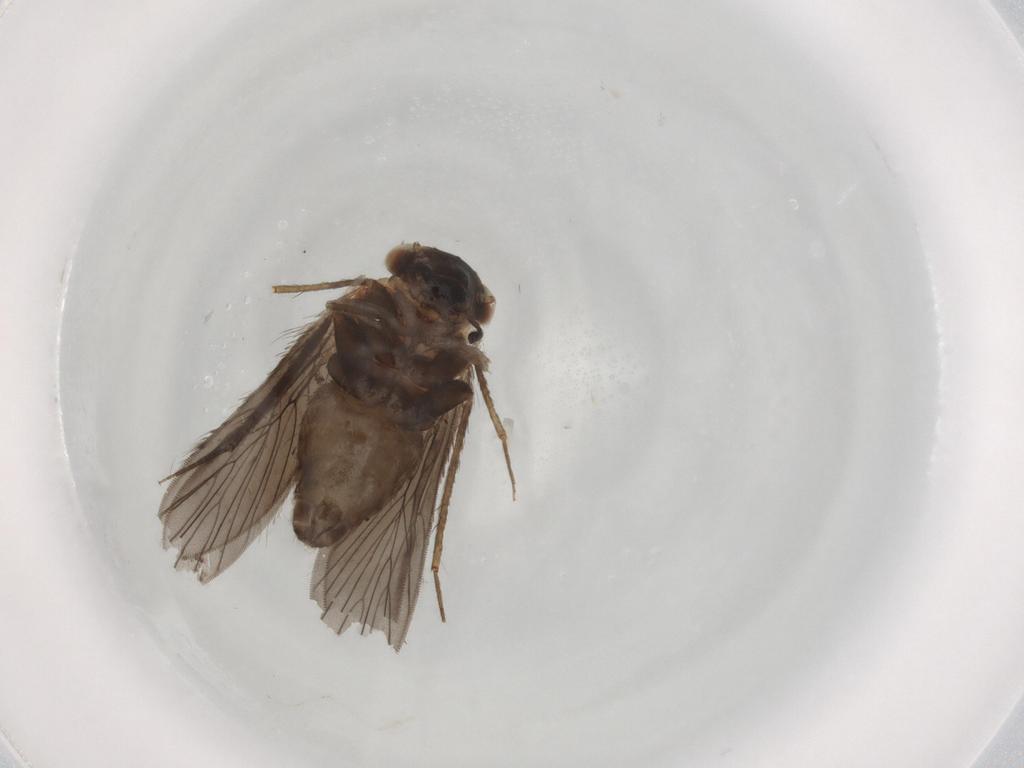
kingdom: Animalia
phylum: Arthropoda
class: Insecta
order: Psocodea
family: Lepidopsocidae
